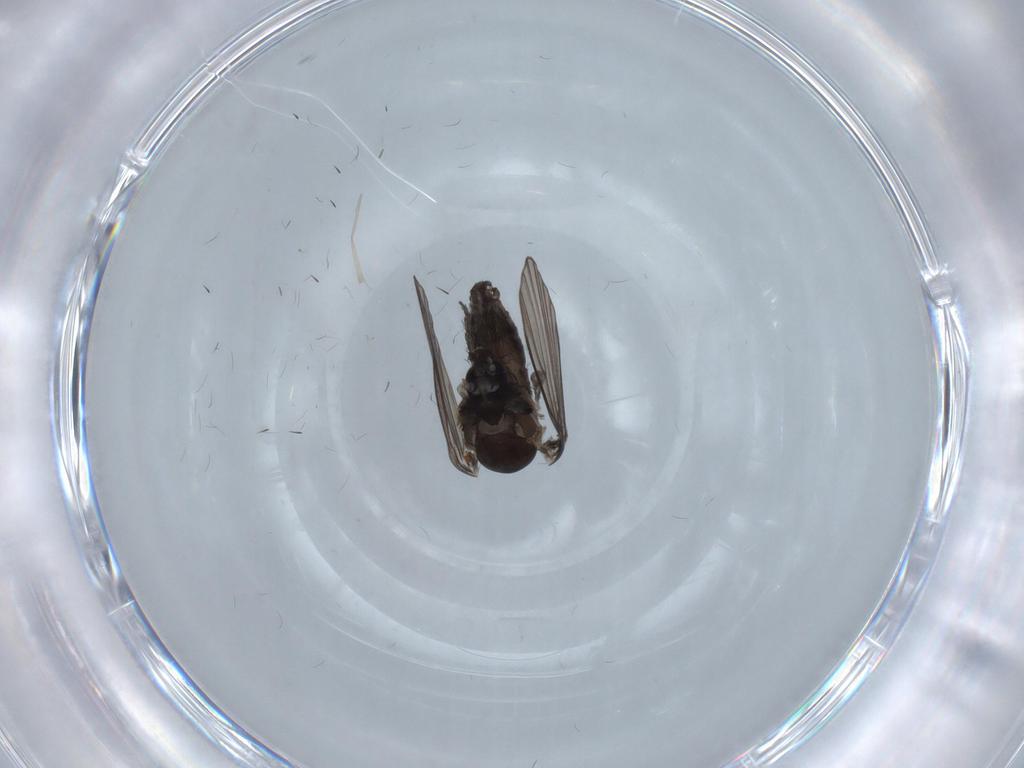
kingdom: Animalia
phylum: Arthropoda
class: Insecta
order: Diptera
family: Psychodidae
